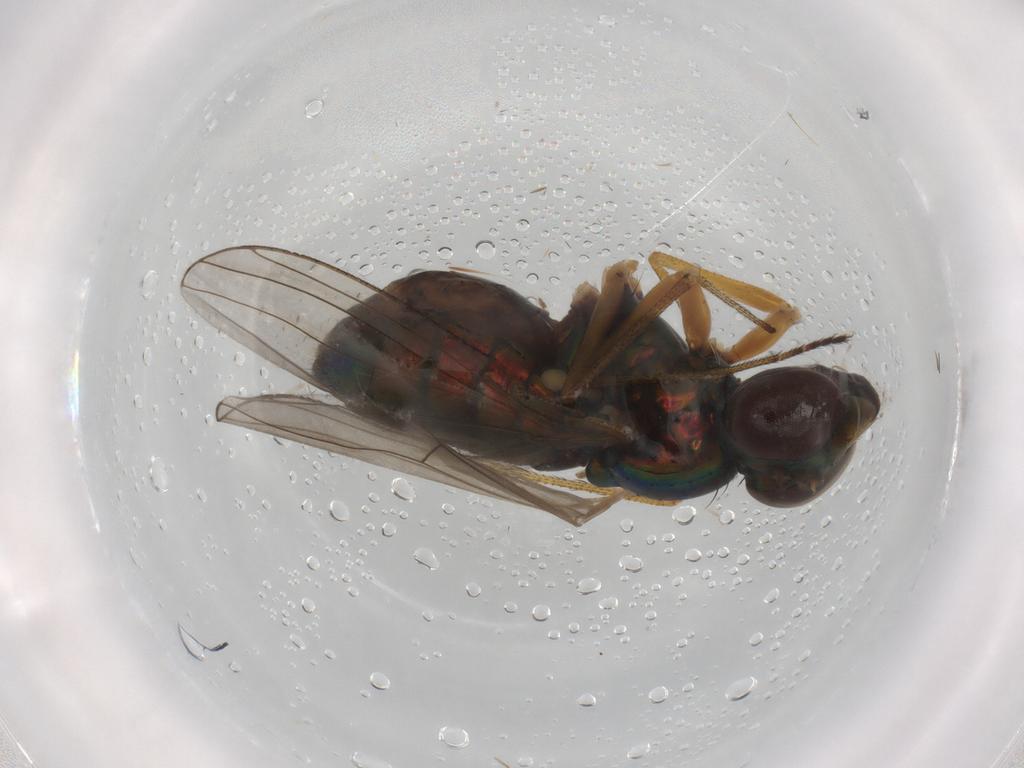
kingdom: Animalia
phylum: Arthropoda
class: Insecta
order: Diptera
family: Dolichopodidae
